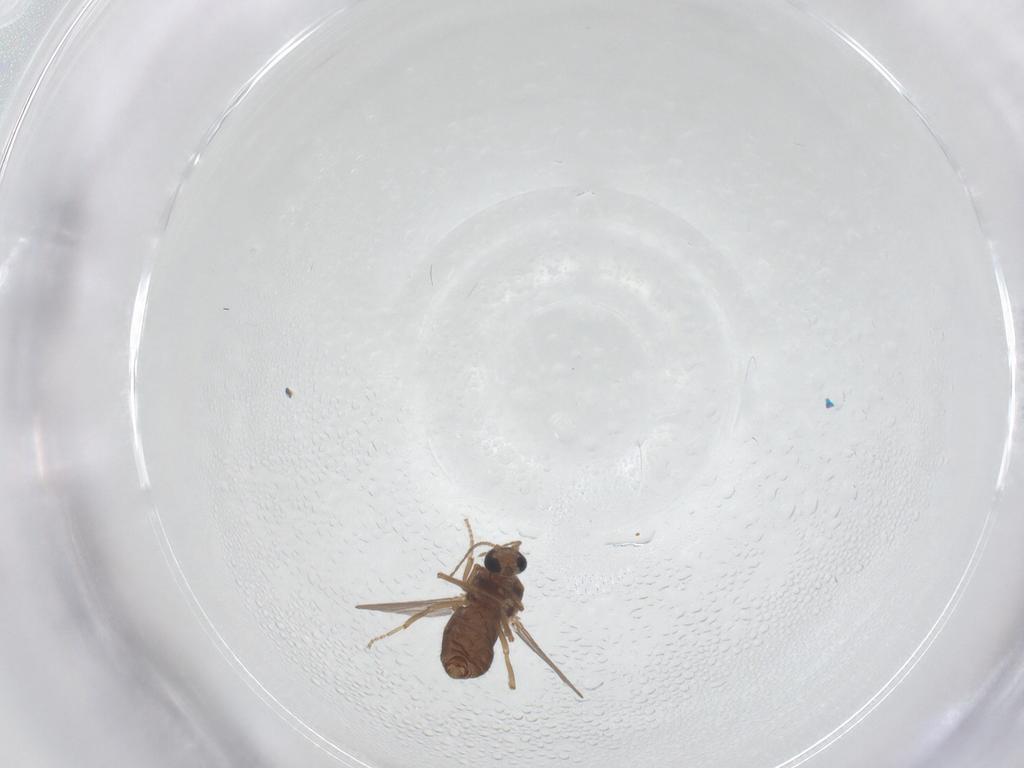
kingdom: Animalia
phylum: Arthropoda
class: Insecta
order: Diptera
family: Ceratopogonidae
